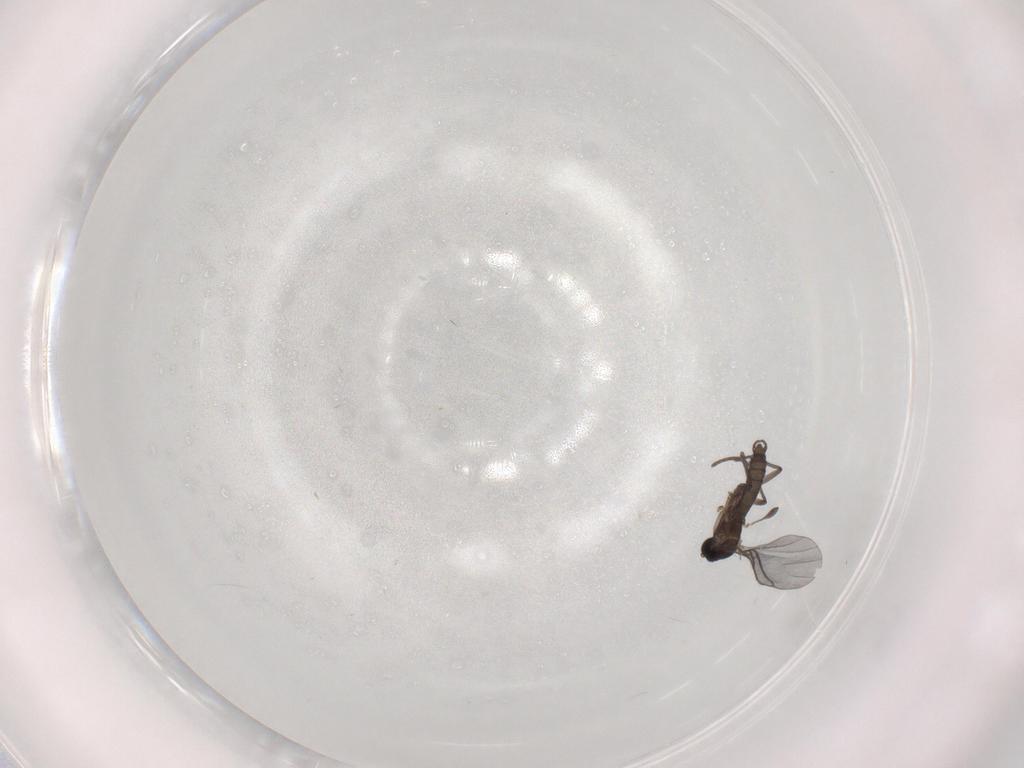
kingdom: Animalia
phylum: Arthropoda
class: Insecta
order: Diptera
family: Sciaridae
